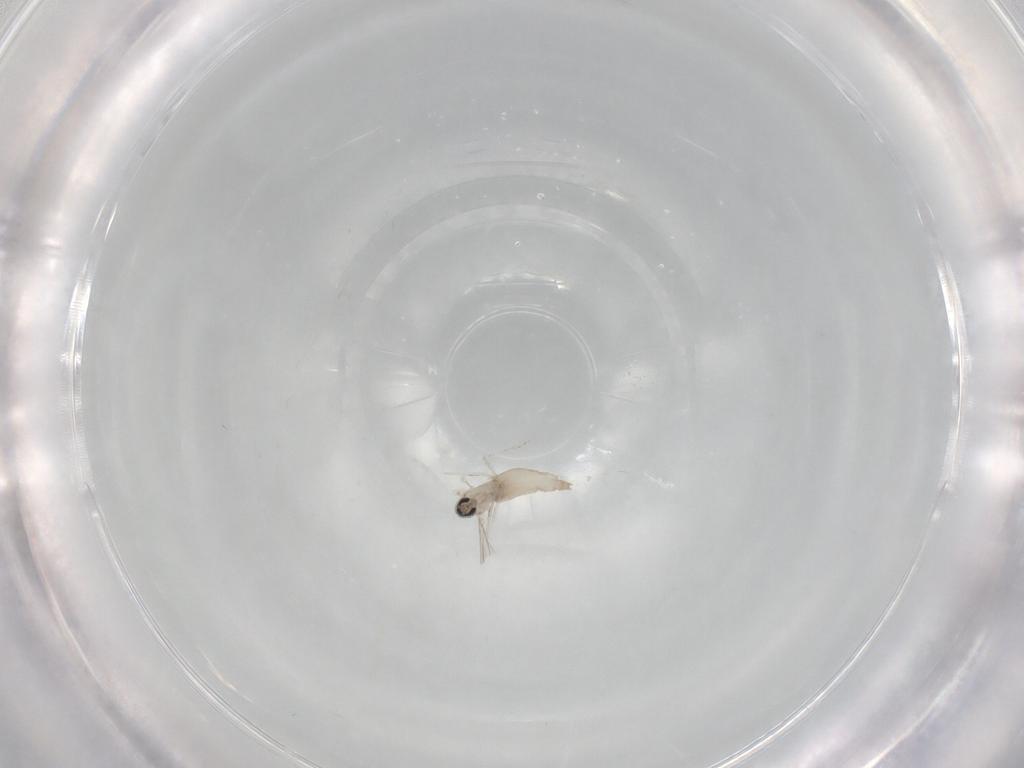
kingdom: Animalia
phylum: Arthropoda
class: Insecta
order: Diptera
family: Cecidomyiidae
